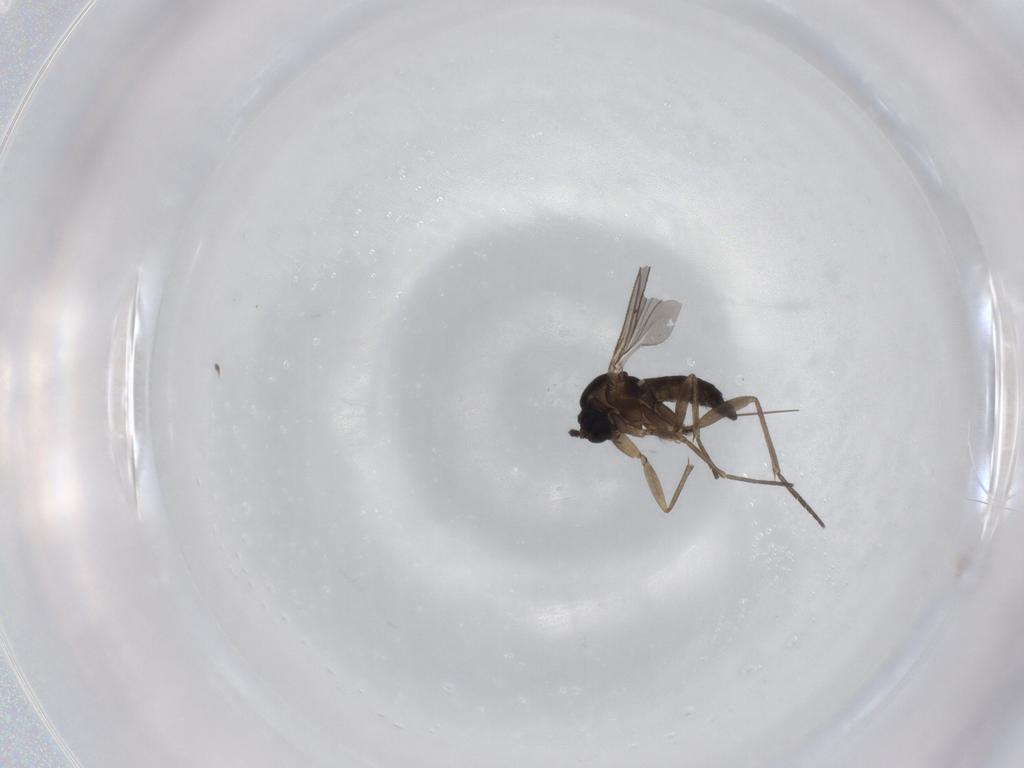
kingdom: Animalia
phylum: Arthropoda
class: Insecta
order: Diptera
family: Sciaridae
